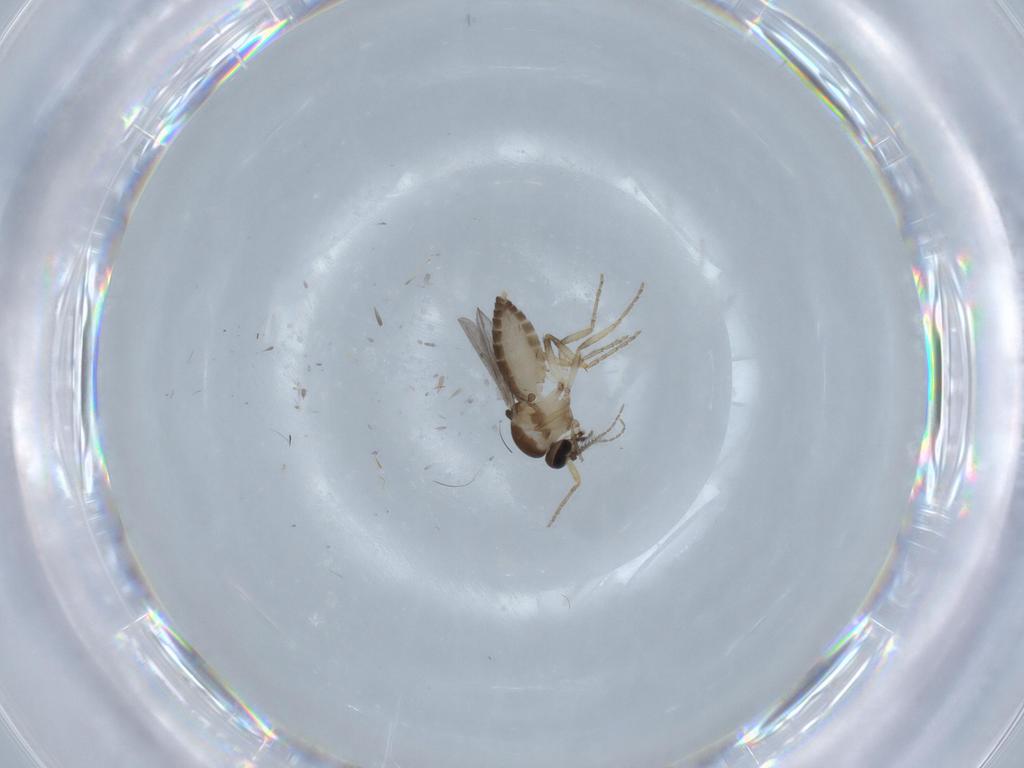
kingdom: Animalia
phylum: Arthropoda
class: Insecta
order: Diptera
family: Ceratopogonidae
